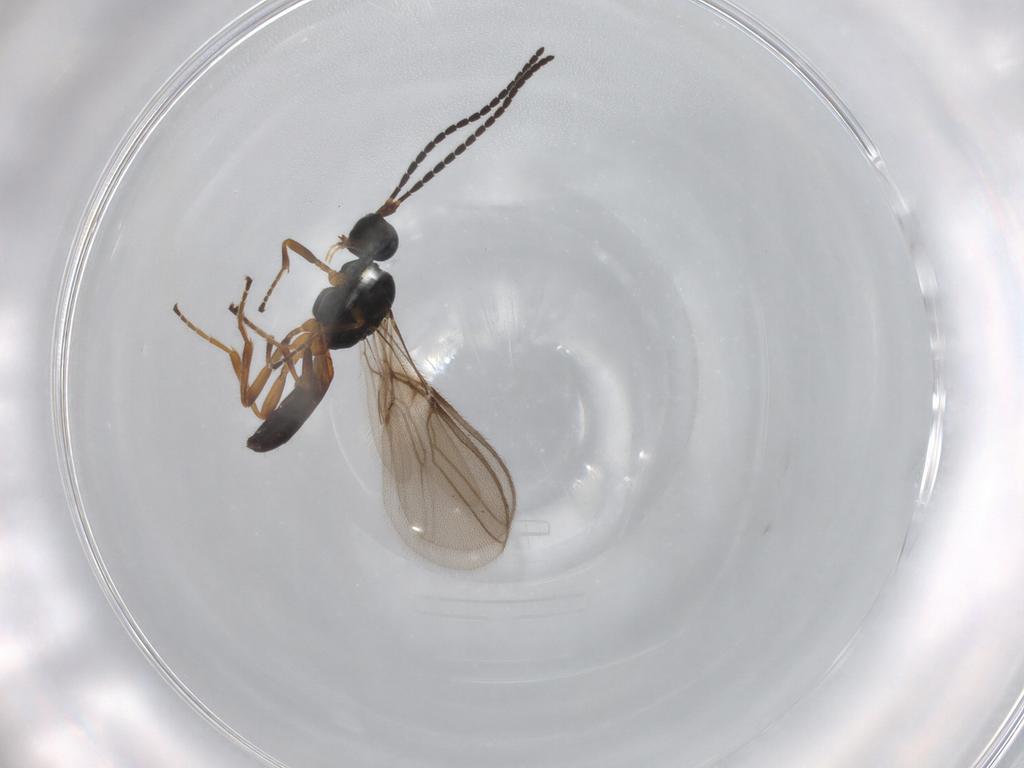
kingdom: Animalia
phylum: Arthropoda
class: Insecta
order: Hymenoptera
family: Braconidae
